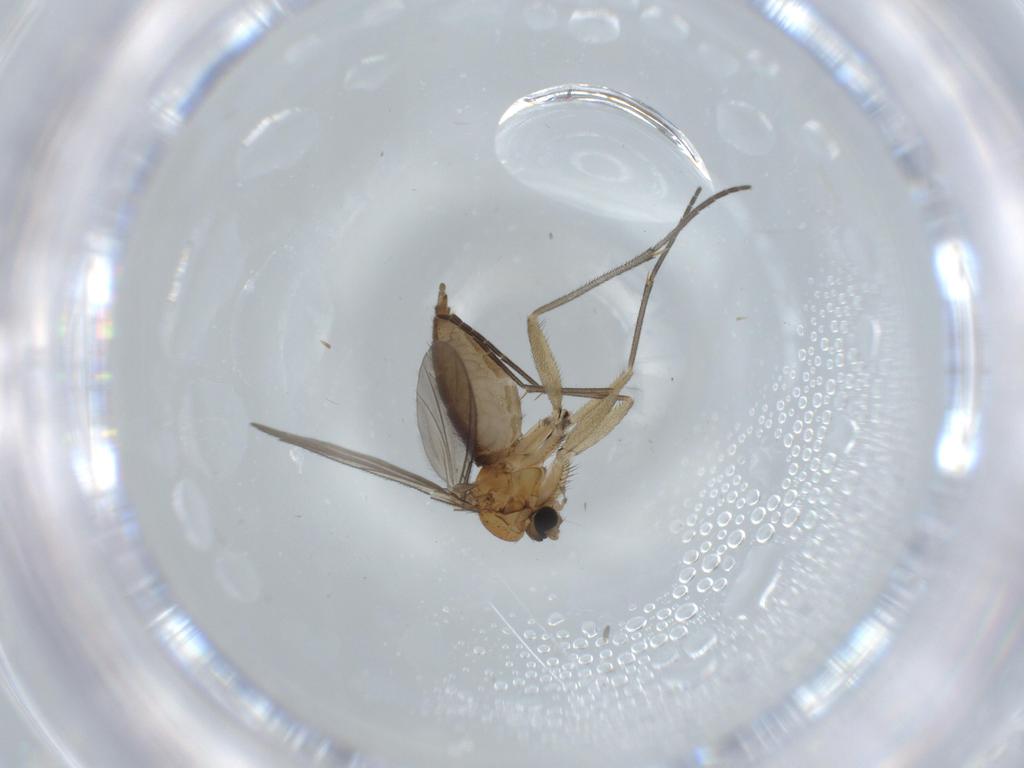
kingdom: Animalia
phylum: Arthropoda
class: Insecta
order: Diptera
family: Sciaridae
